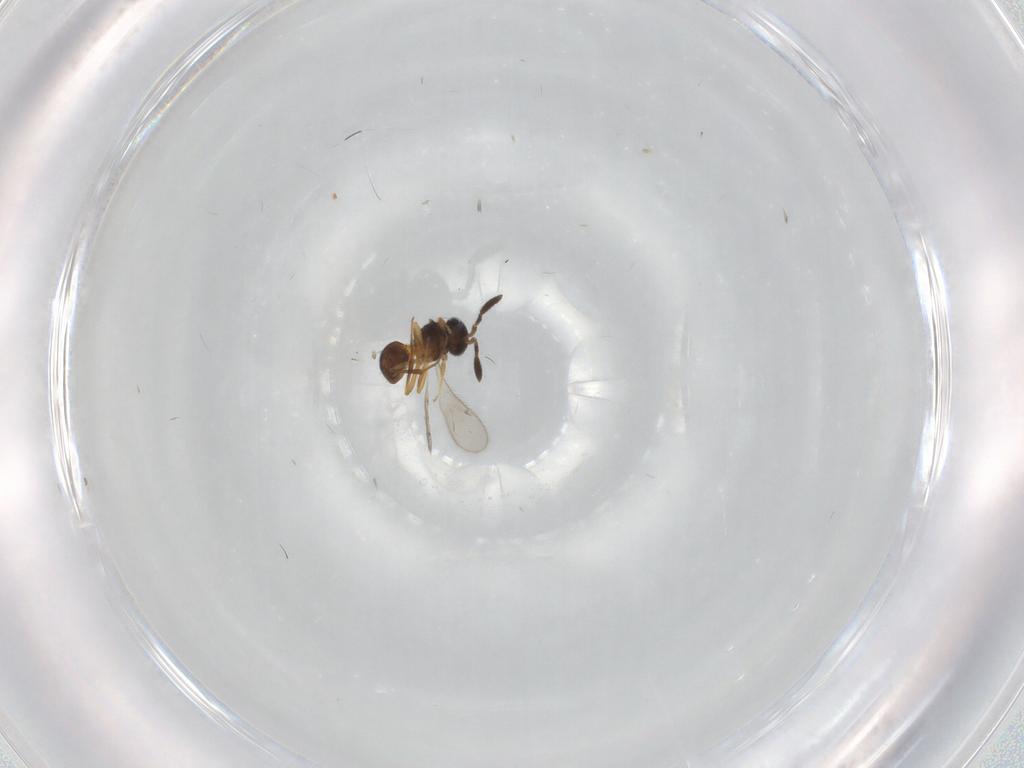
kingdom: Animalia
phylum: Arthropoda
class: Insecta
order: Hymenoptera
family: Scelionidae
